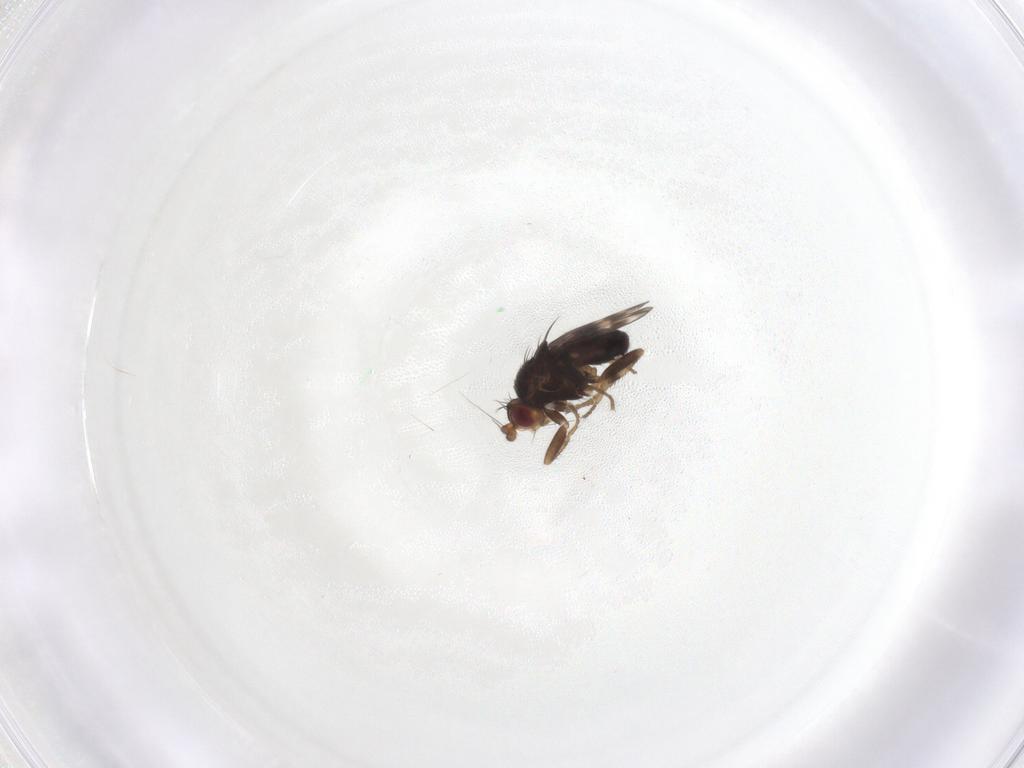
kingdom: Animalia
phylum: Arthropoda
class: Insecta
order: Diptera
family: Sphaeroceridae
